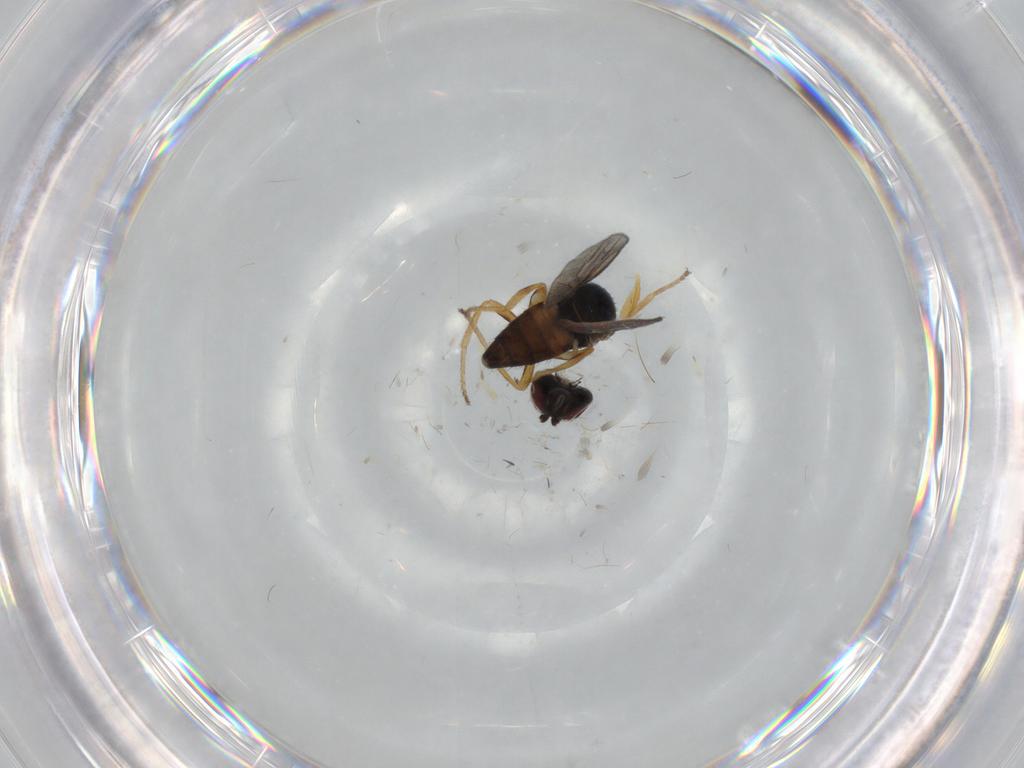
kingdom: Animalia
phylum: Arthropoda
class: Insecta
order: Diptera
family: Chloropidae
